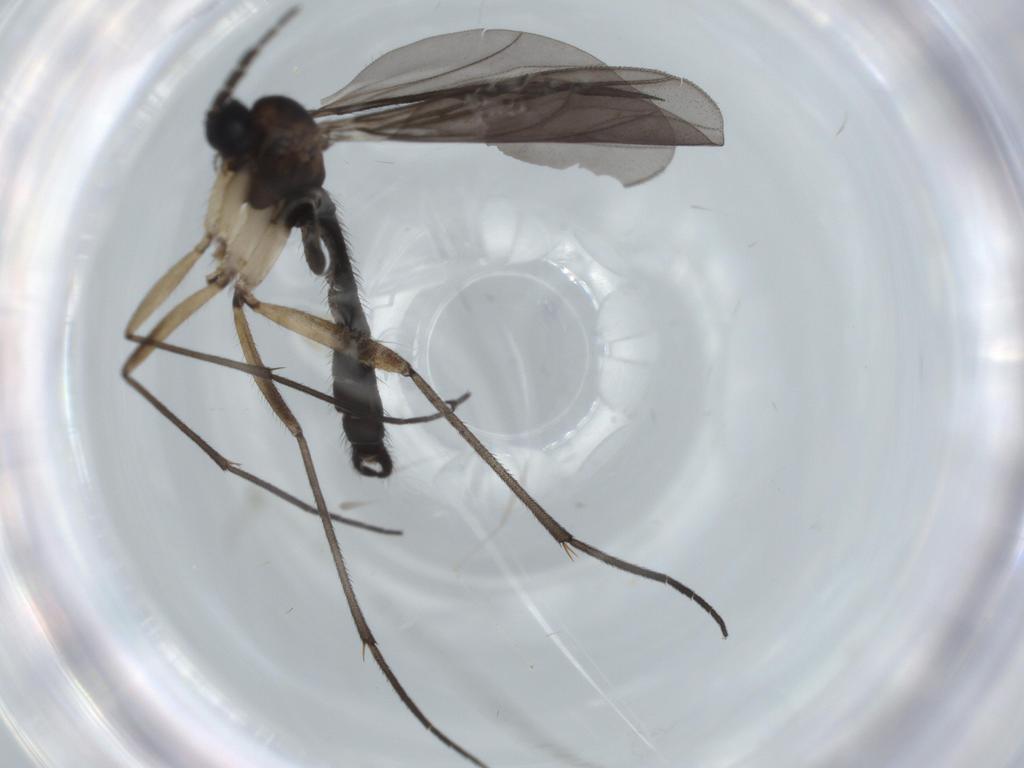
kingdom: Animalia
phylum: Arthropoda
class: Insecta
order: Diptera
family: Sciaridae
